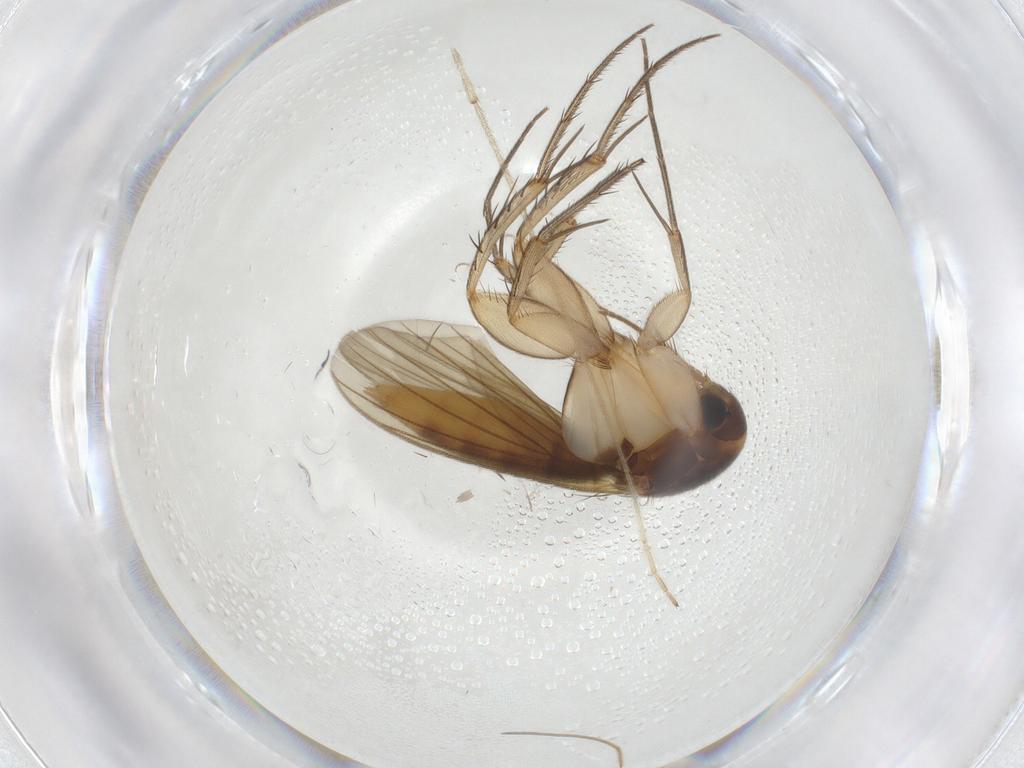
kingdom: Animalia
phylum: Arthropoda
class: Insecta
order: Diptera
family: Mycetophilidae
